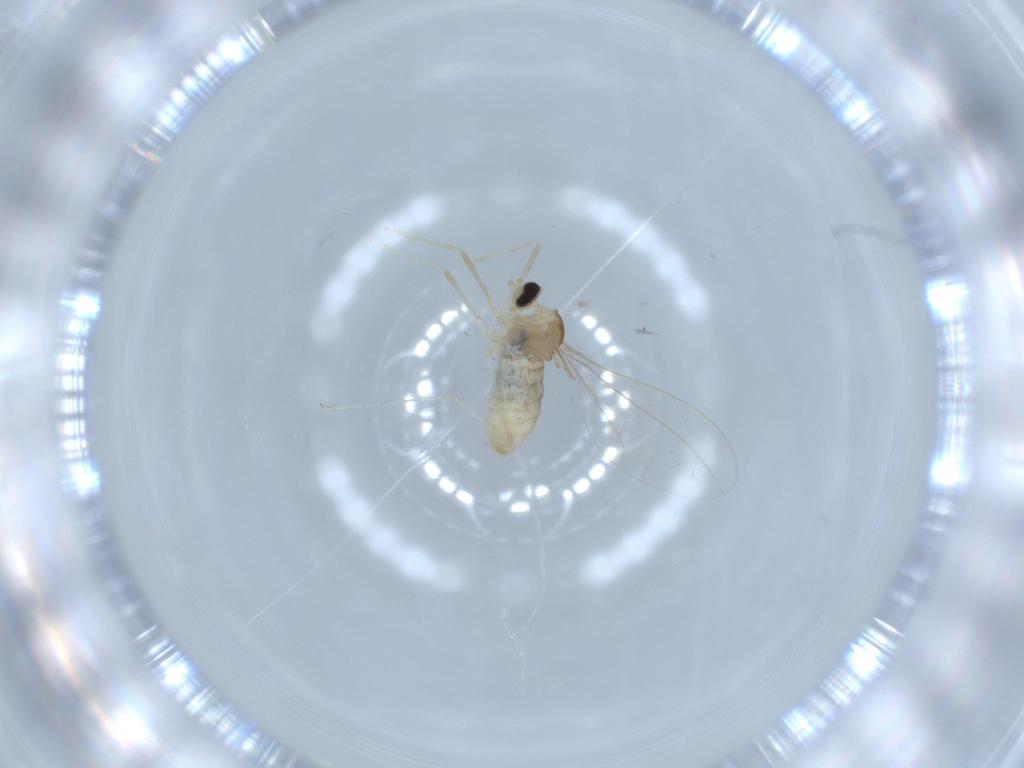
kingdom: Animalia
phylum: Arthropoda
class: Insecta
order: Diptera
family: Cecidomyiidae
